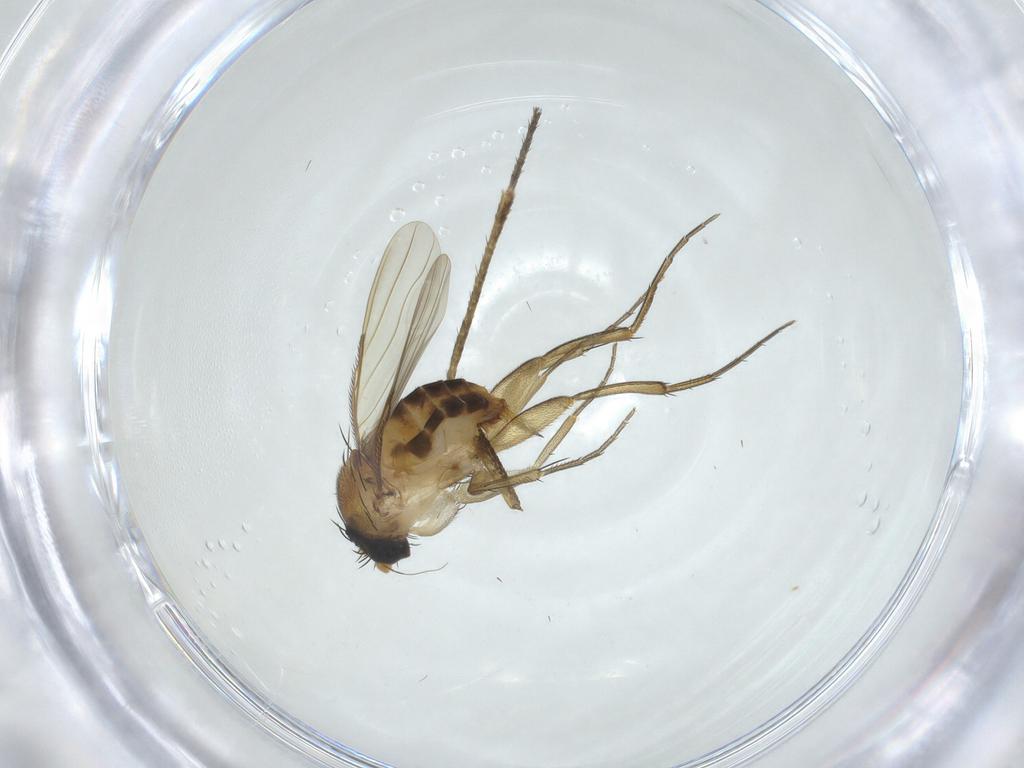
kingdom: Animalia
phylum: Arthropoda
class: Insecta
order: Diptera
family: Phoridae
